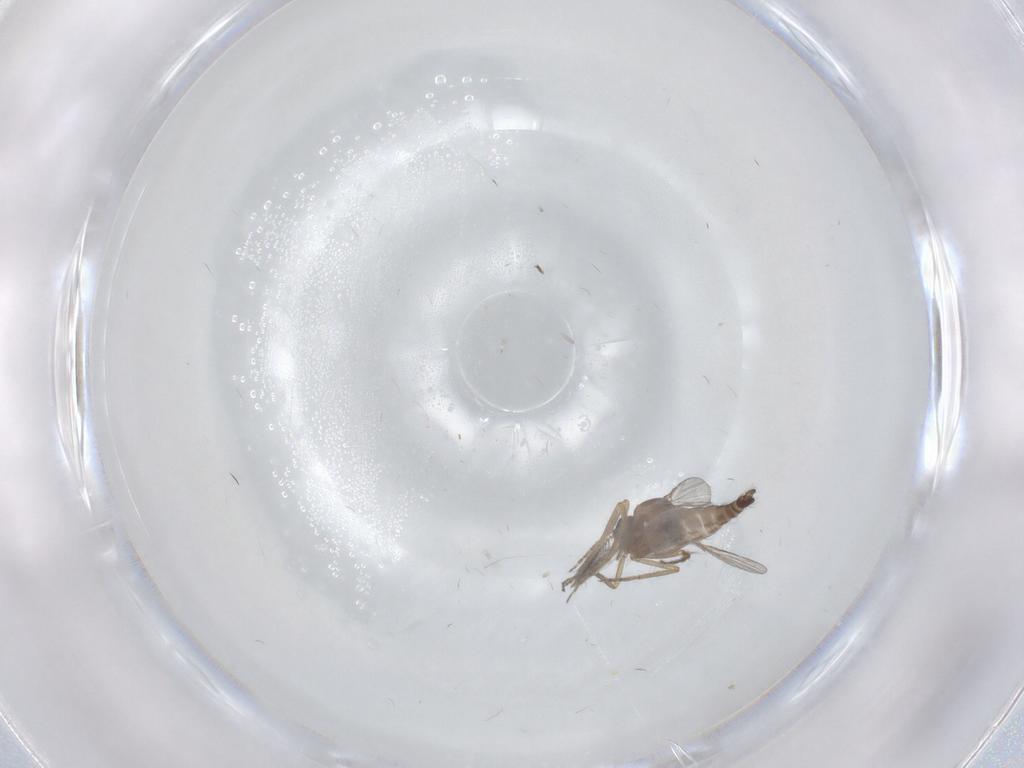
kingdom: Animalia
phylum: Arthropoda
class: Insecta
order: Diptera
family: Ceratopogonidae
